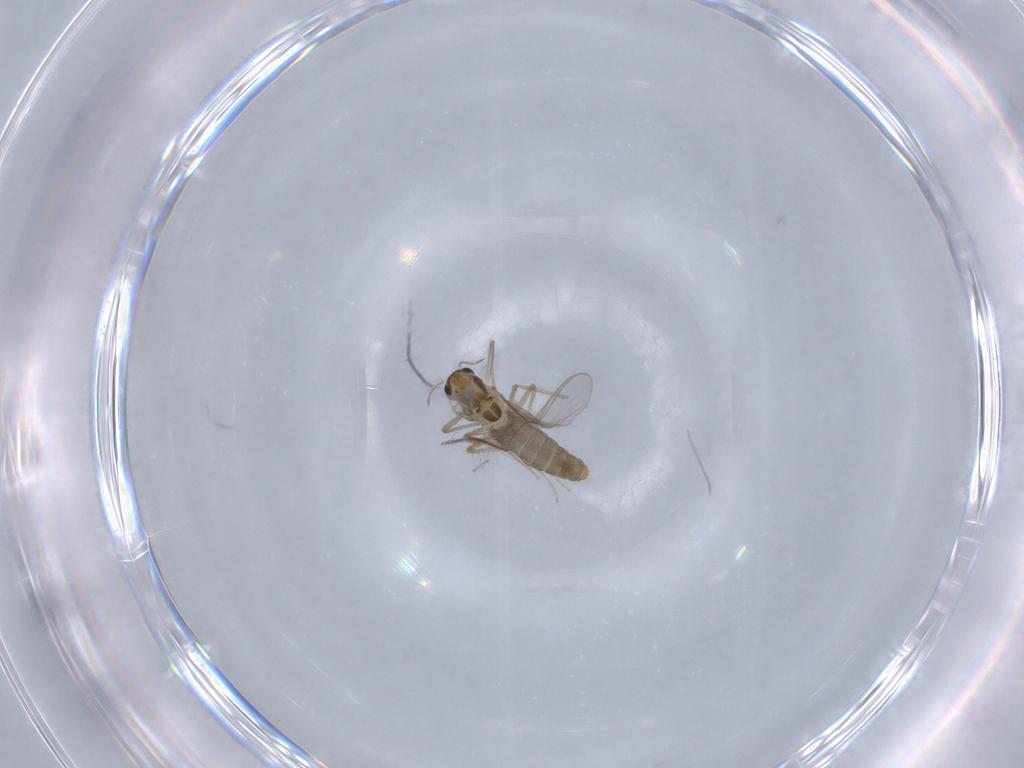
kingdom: Animalia
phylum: Arthropoda
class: Insecta
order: Diptera
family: Chironomidae
